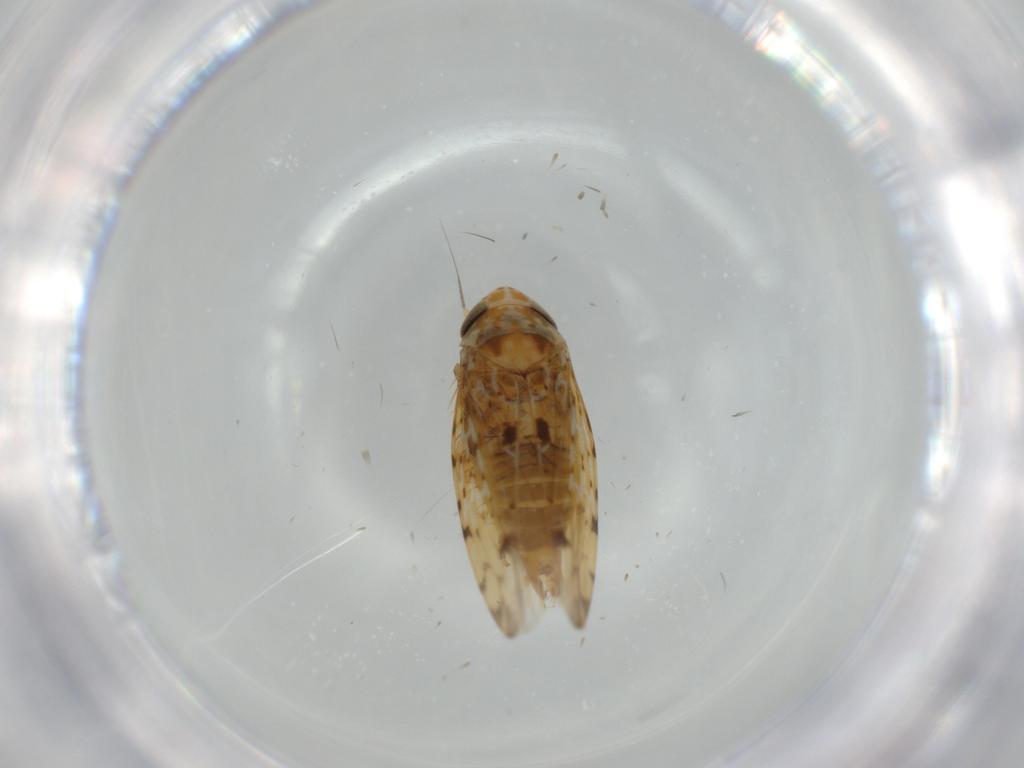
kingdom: Animalia
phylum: Arthropoda
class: Insecta
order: Hemiptera
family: Cicadellidae
